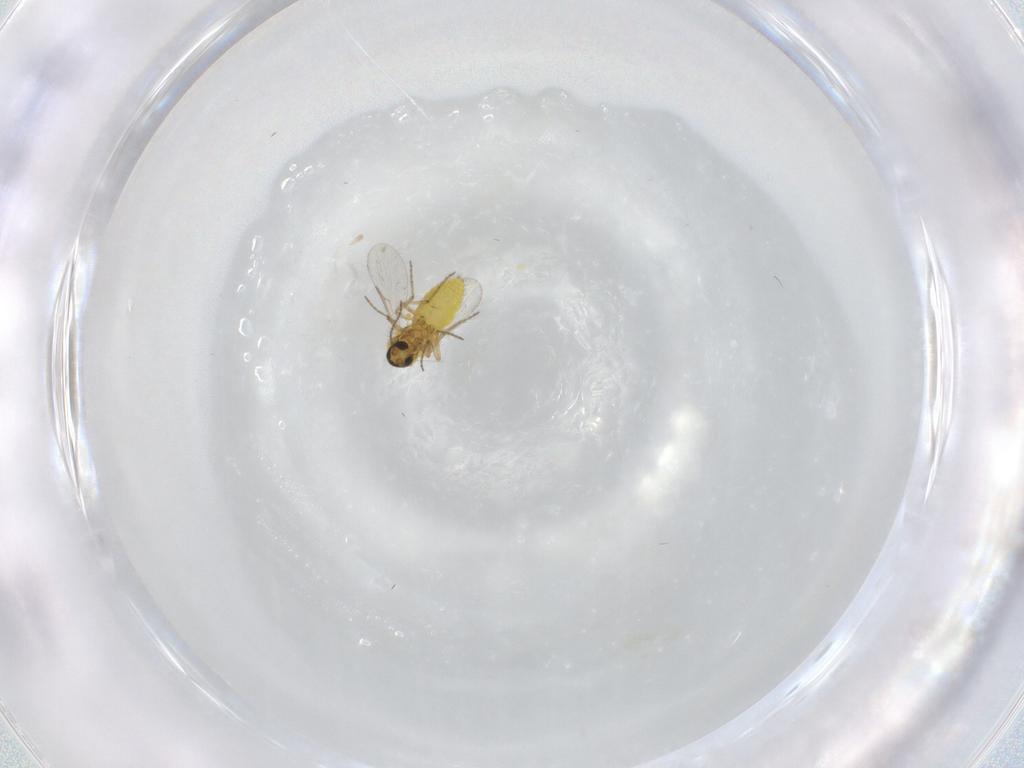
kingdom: Animalia
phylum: Arthropoda
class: Insecta
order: Diptera
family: Ceratopogonidae
